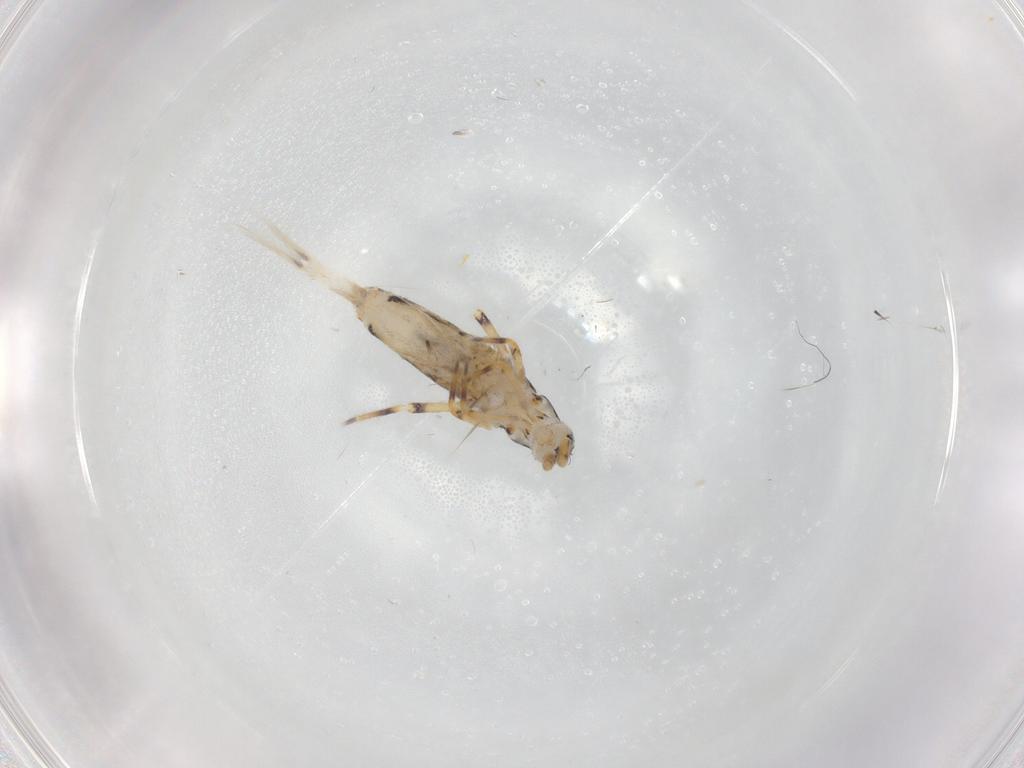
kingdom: Animalia
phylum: Arthropoda
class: Collembola
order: Entomobryomorpha
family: Entomobryidae
